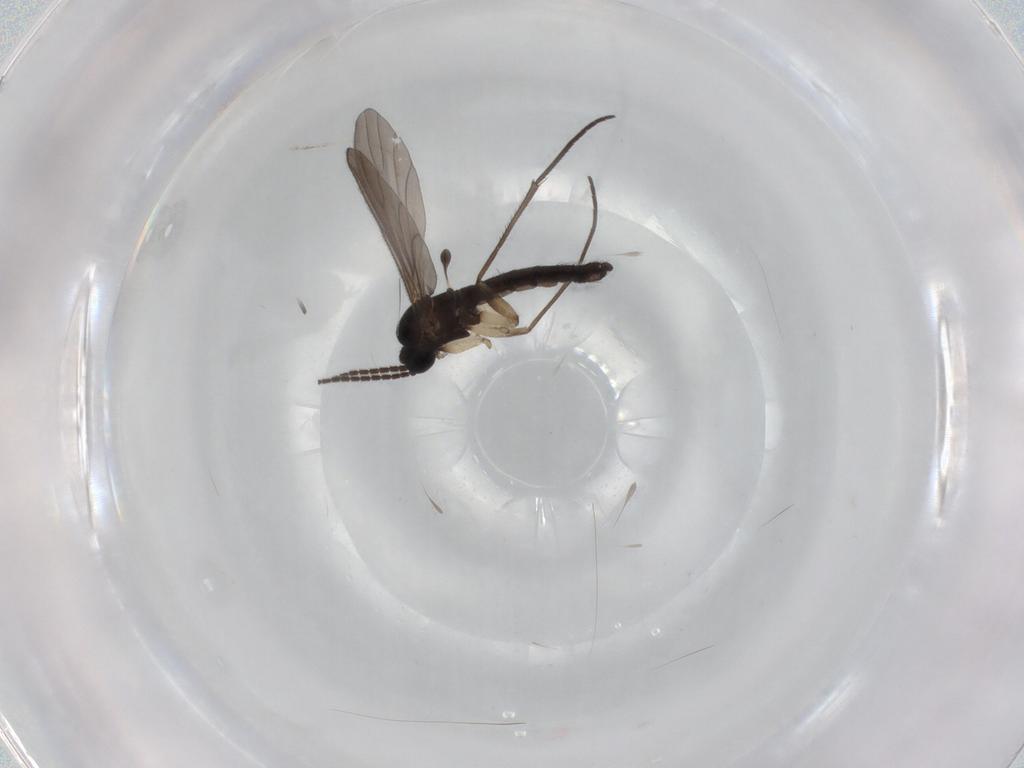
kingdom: Animalia
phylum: Arthropoda
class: Insecta
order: Diptera
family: Sciaridae
